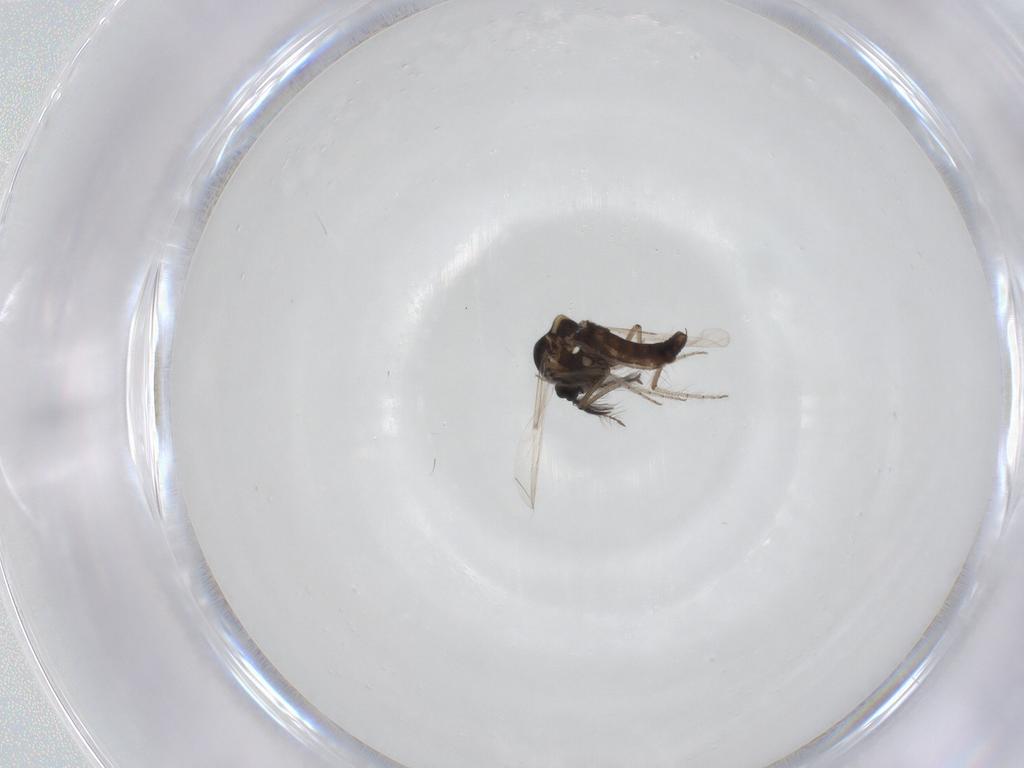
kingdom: Animalia
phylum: Arthropoda
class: Insecta
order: Diptera
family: Ceratopogonidae
